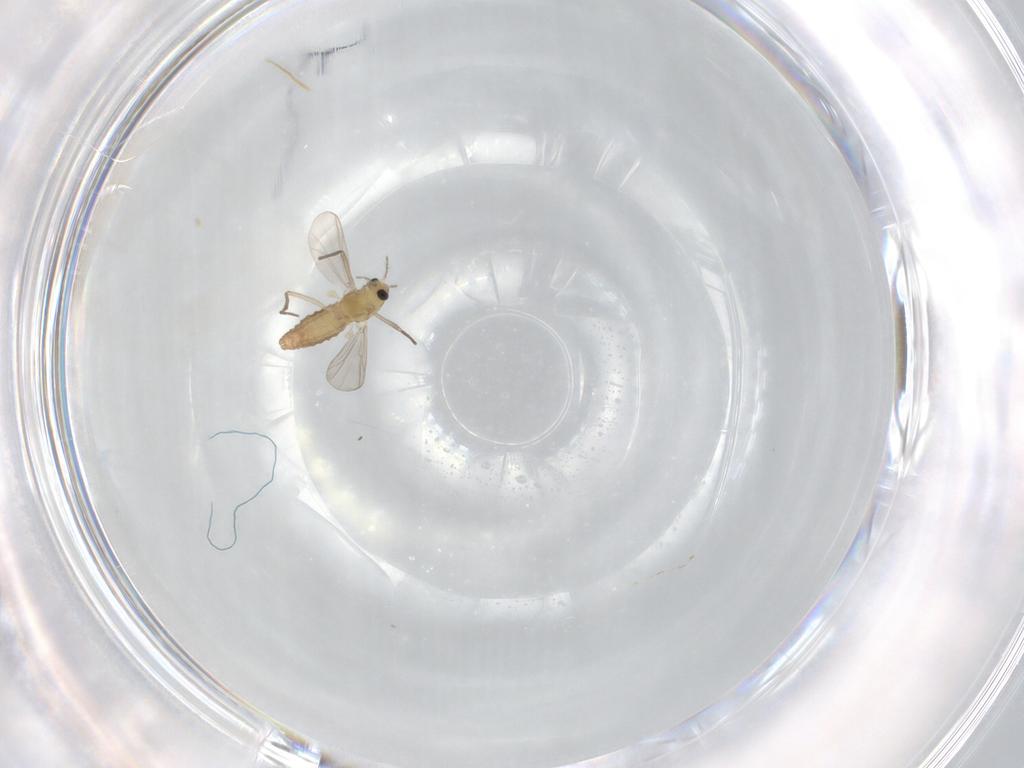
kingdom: Animalia
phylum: Arthropoda
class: Insecta
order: Diptera
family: Chironomidae
